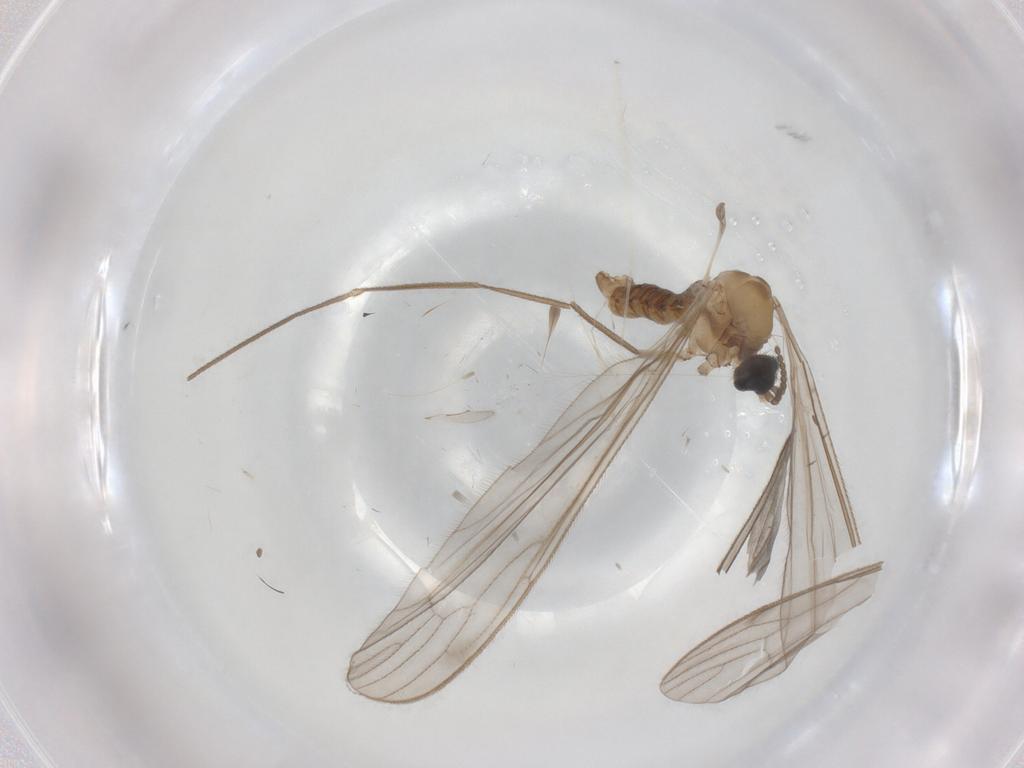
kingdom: Animalia
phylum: Arthropoda
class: Insecta
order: Diptera
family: Limoniidae
